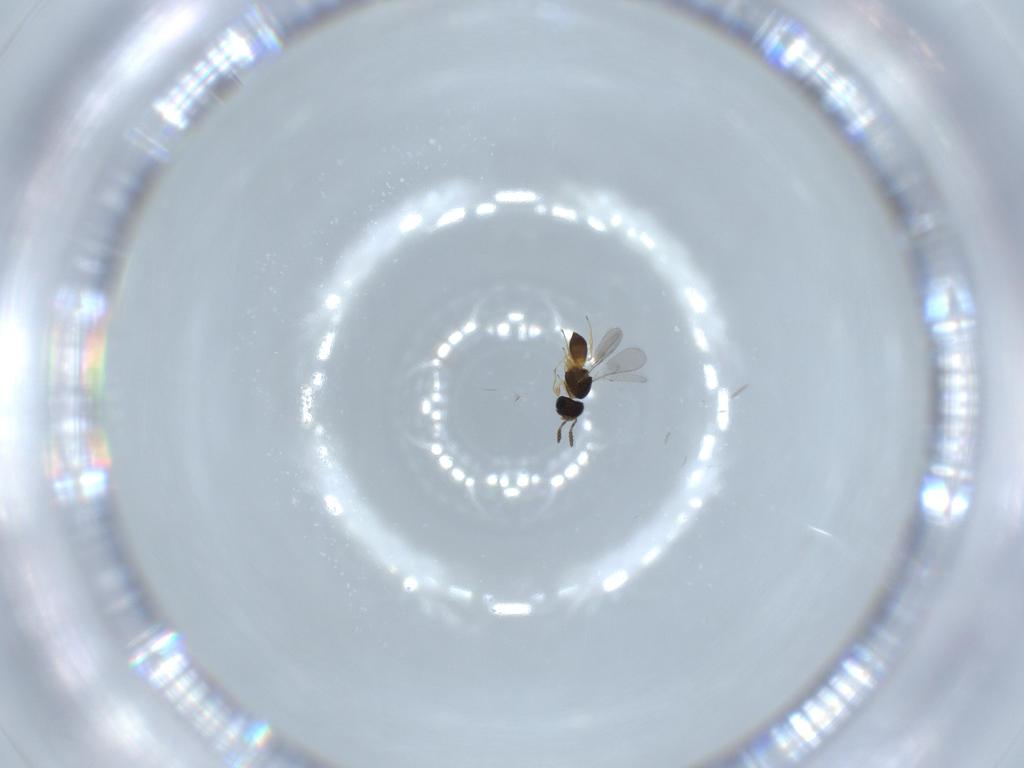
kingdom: Animalia
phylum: Arthropoda
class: Insecta
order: Hymenoptera
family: Scelionidae
